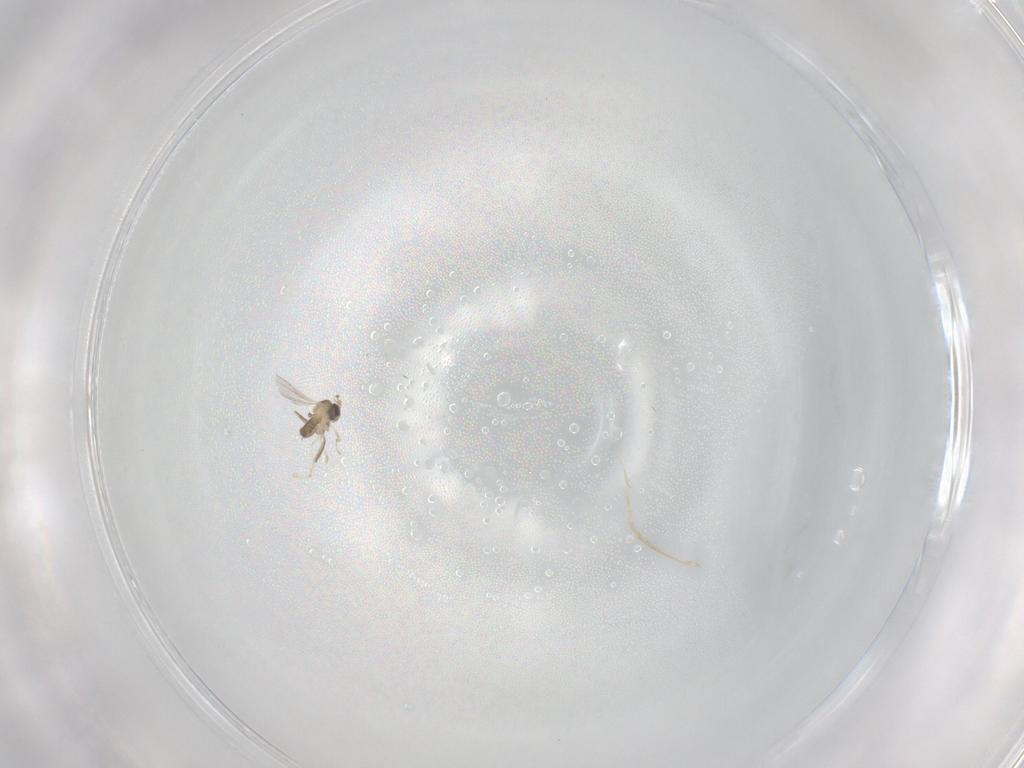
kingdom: Animalia
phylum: Arthropoda
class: Insecta
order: Diptera
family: Cecidomyiidae
